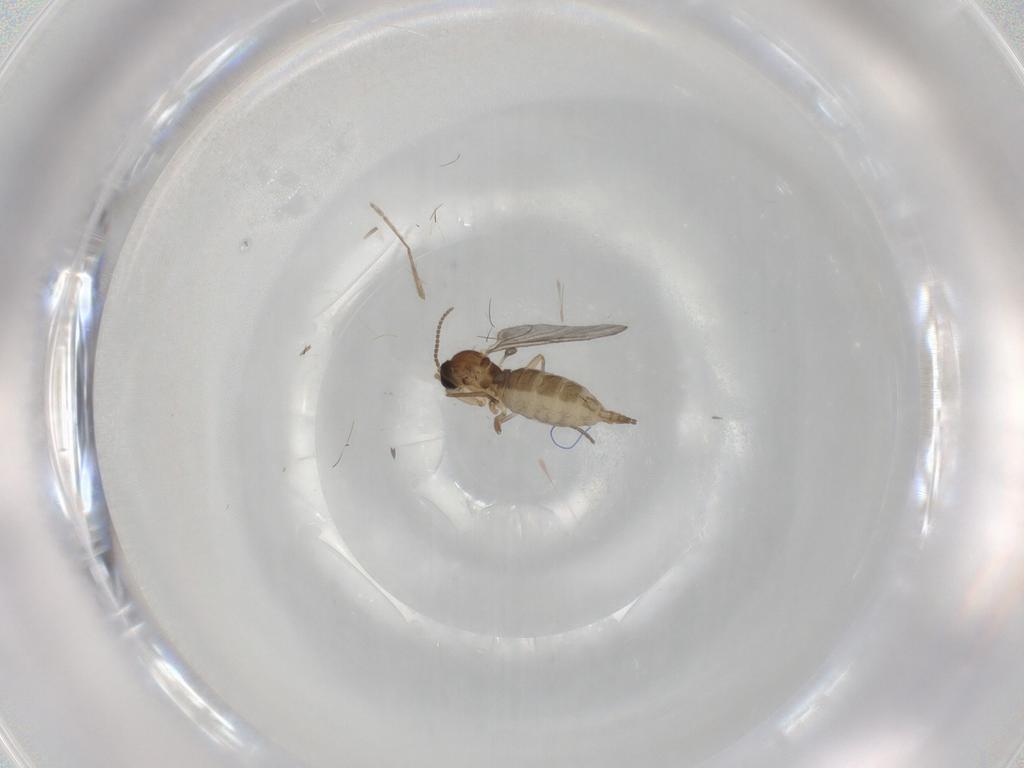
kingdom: Animalia
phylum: Arthropoda
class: Insecta
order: Diptera
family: Sciaridae
